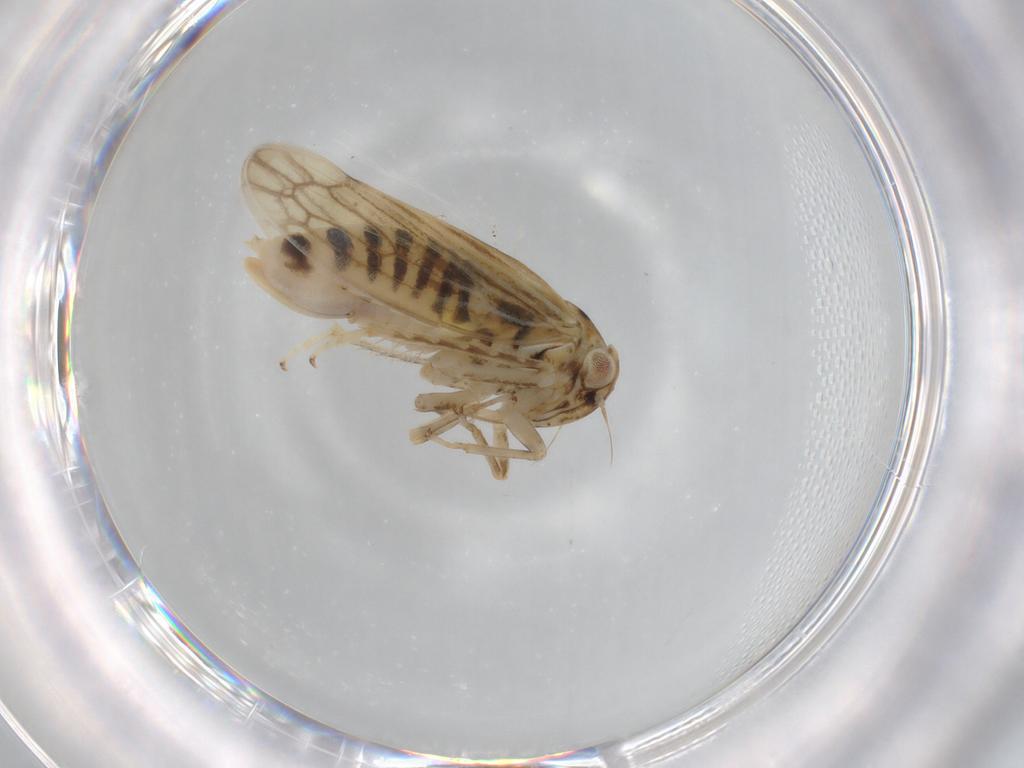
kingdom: Animalia
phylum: Arthropoda
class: Insecta
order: Hemiptera
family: Cicadellidae
